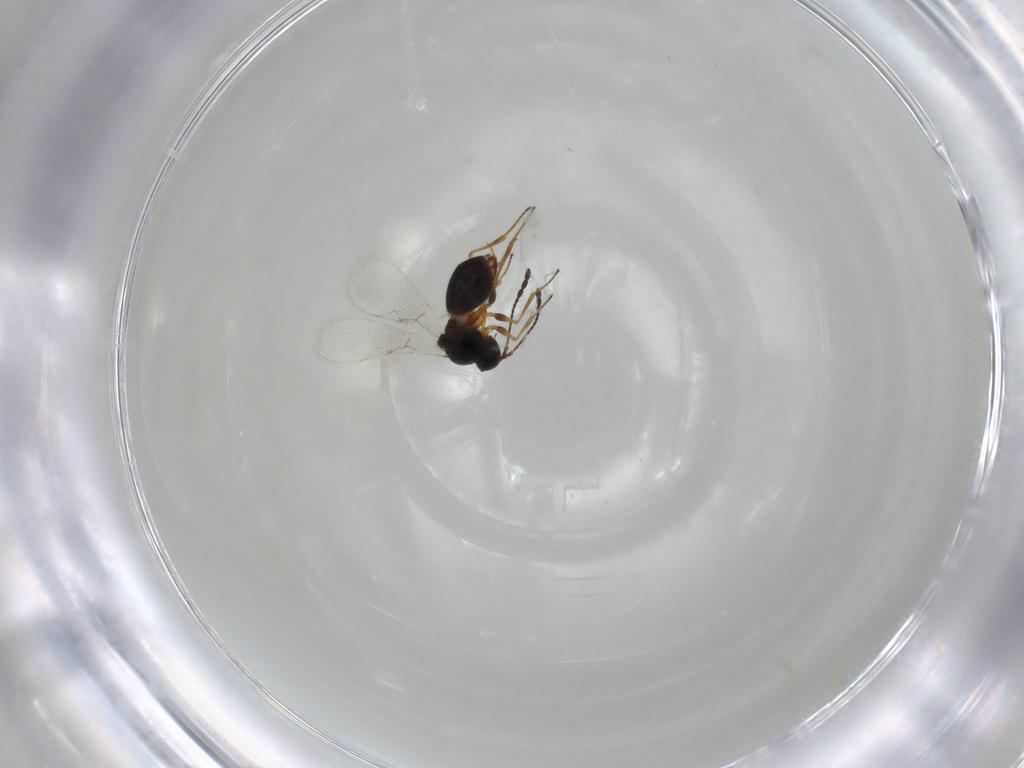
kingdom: Animalia
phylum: Arthropoda
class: Insecta
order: Hymenoptera
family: Figitidae
